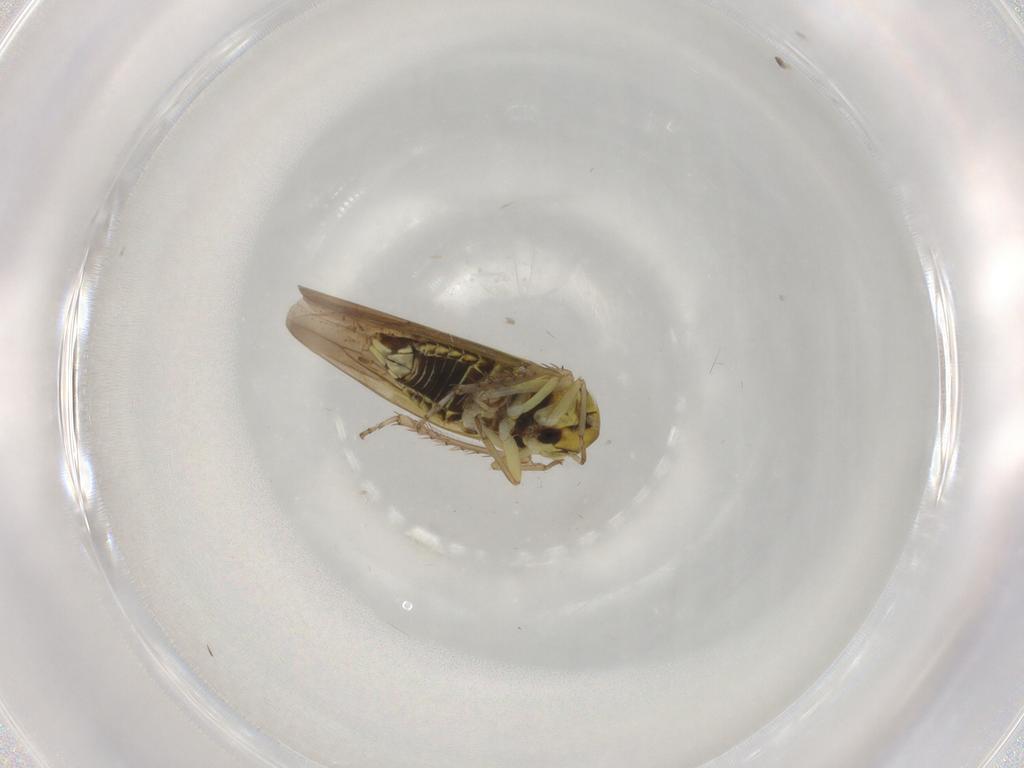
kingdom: Animalia
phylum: Arthropoda
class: Insecta
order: Hemiptera
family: Cicadellidae
